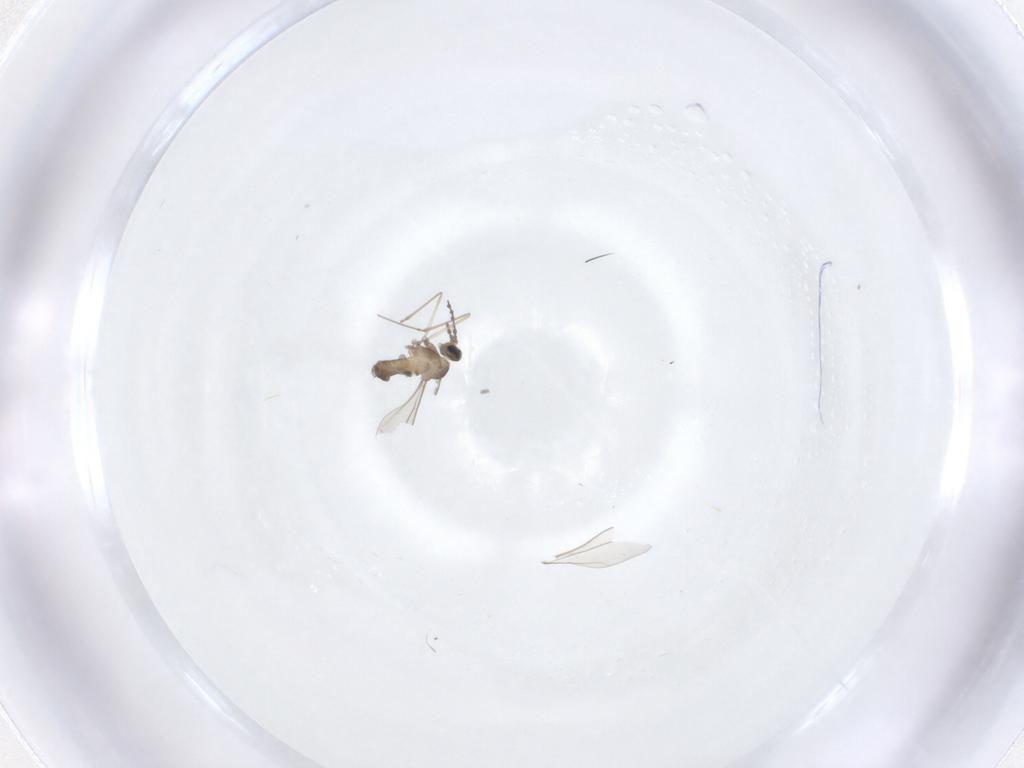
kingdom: Animalia
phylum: Arthropoda
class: Insecta
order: Diptera
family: Cecidomyiidae
